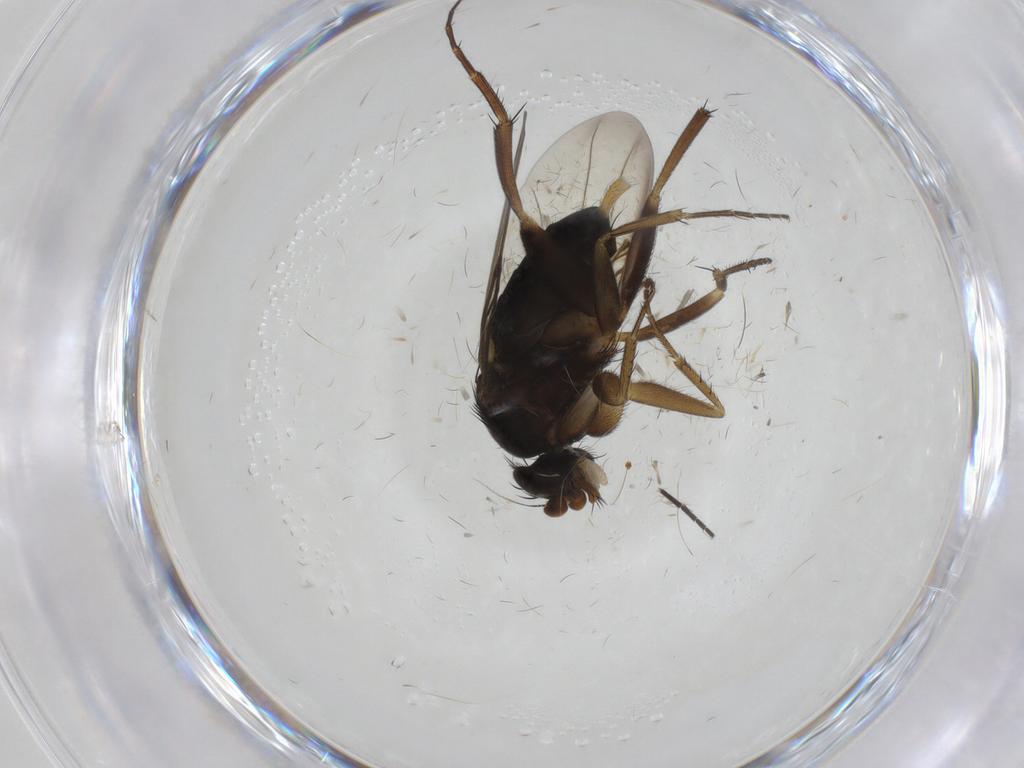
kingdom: Animalia
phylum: Arthropoda
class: Insecta
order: Diptera
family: Phoridae
